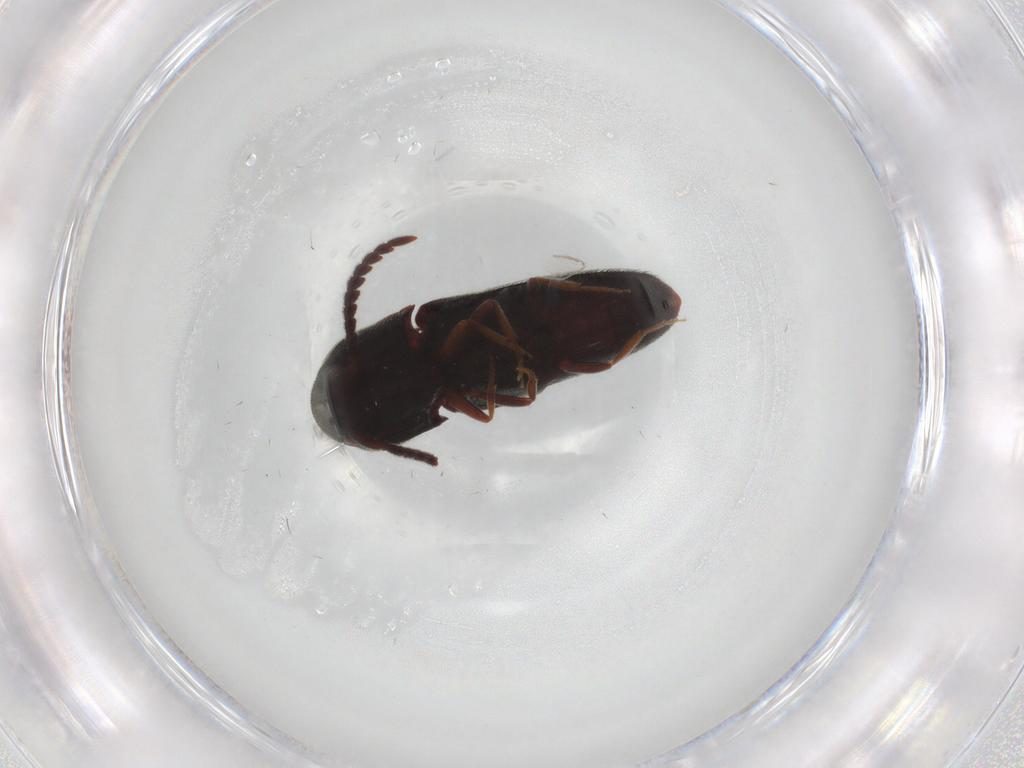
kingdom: Animalia
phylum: Arthropoda
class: Insecta
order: Coleoptera
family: Eucnemidae
